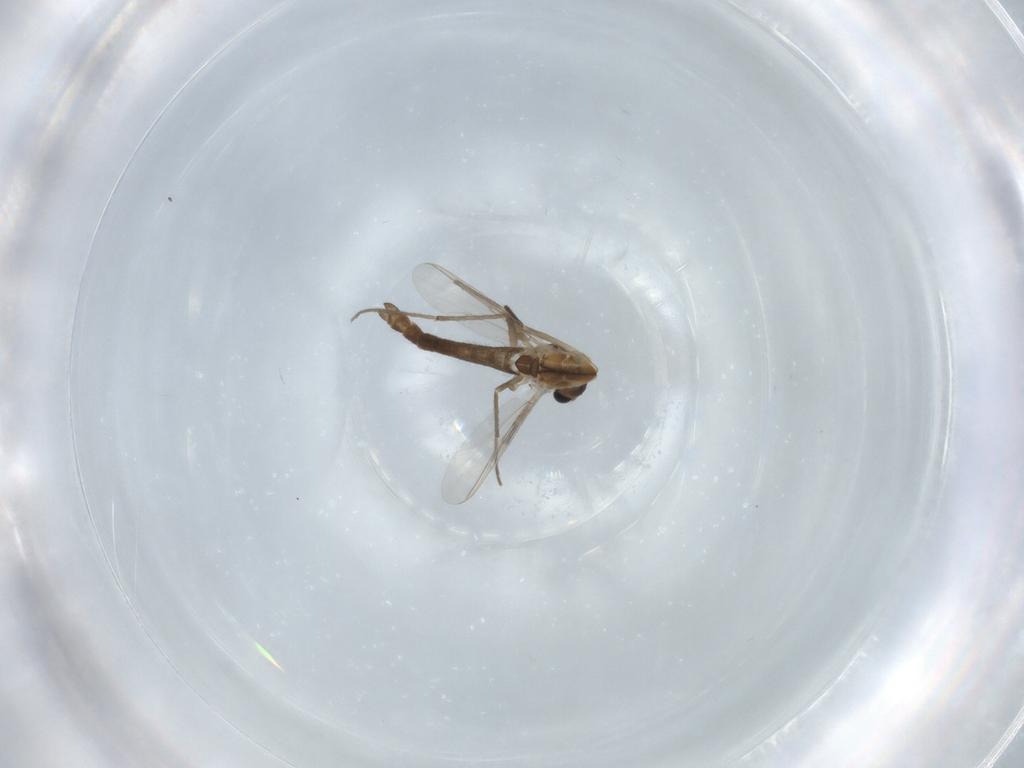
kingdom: Animalia
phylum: Arthropoda
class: Insecta
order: Diptera
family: Chironomidae
